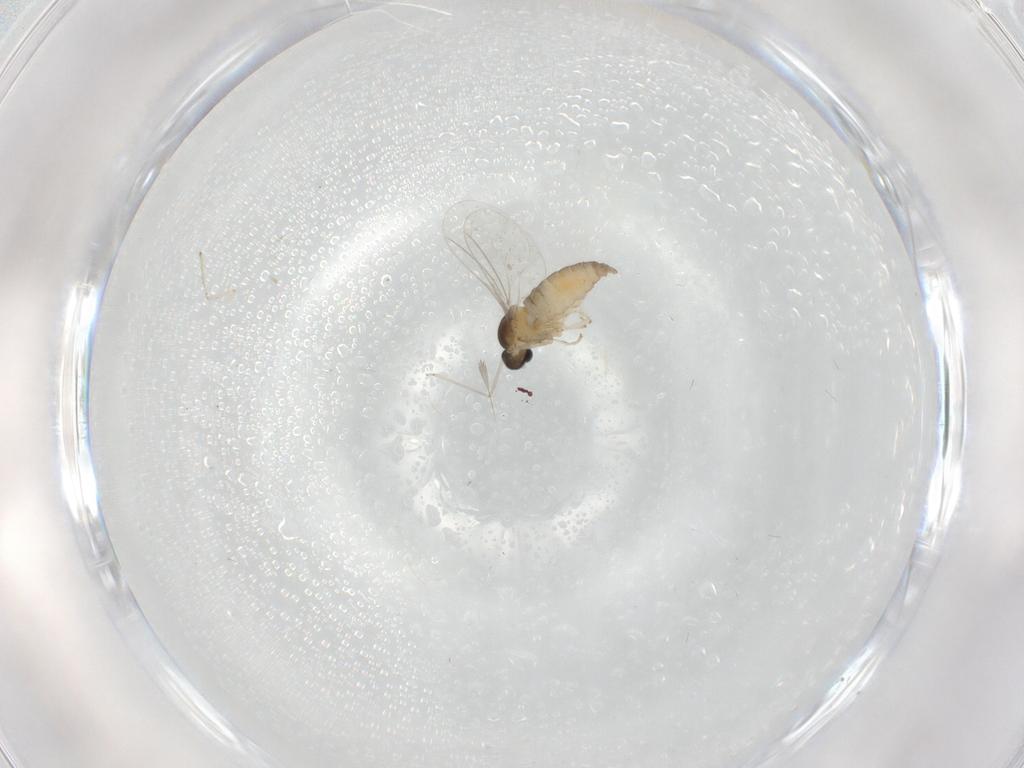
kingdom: Animalia
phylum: Arthropoda
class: Insecta
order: Diptera
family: Cecidomyiidae
